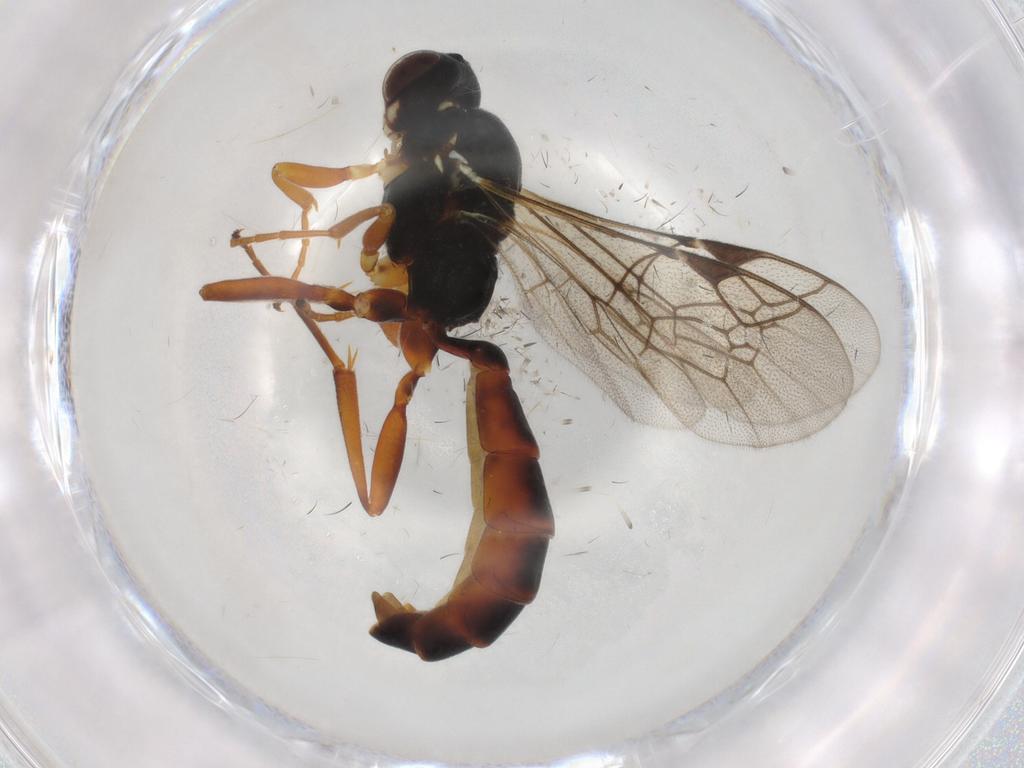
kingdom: Animalia
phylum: Arthropoda
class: Insecta
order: Hymenoptera
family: Ichneumonidae
